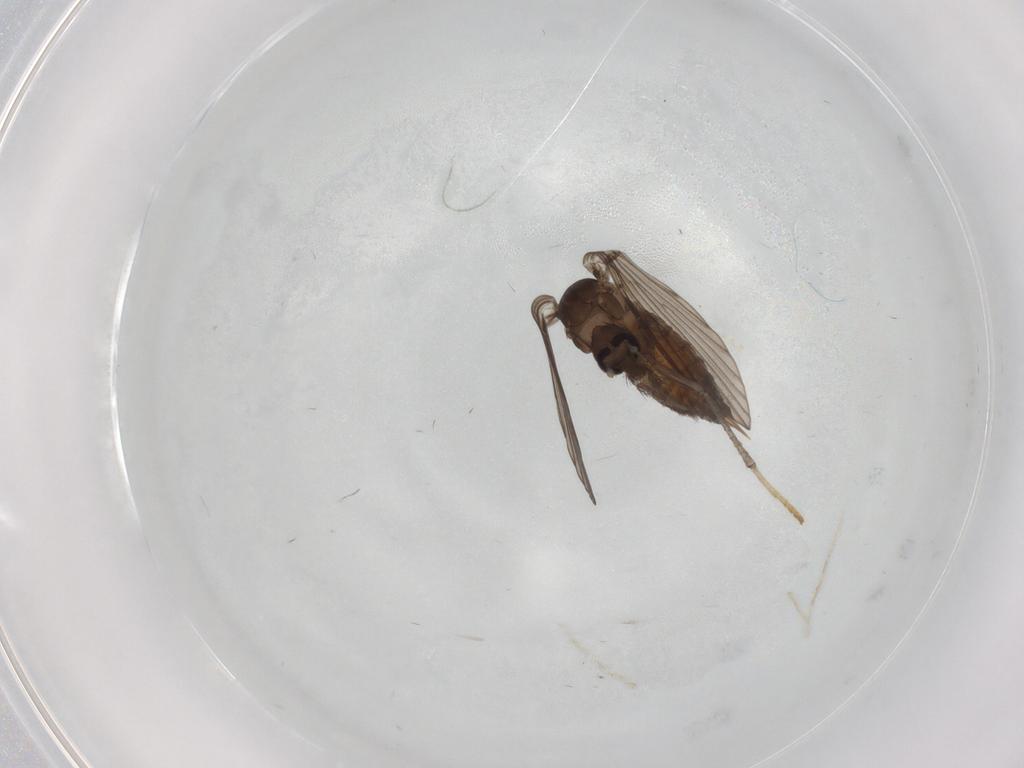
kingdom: Animalia
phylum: Arthropoda
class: Insecta
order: Diptera
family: Psychodidae
